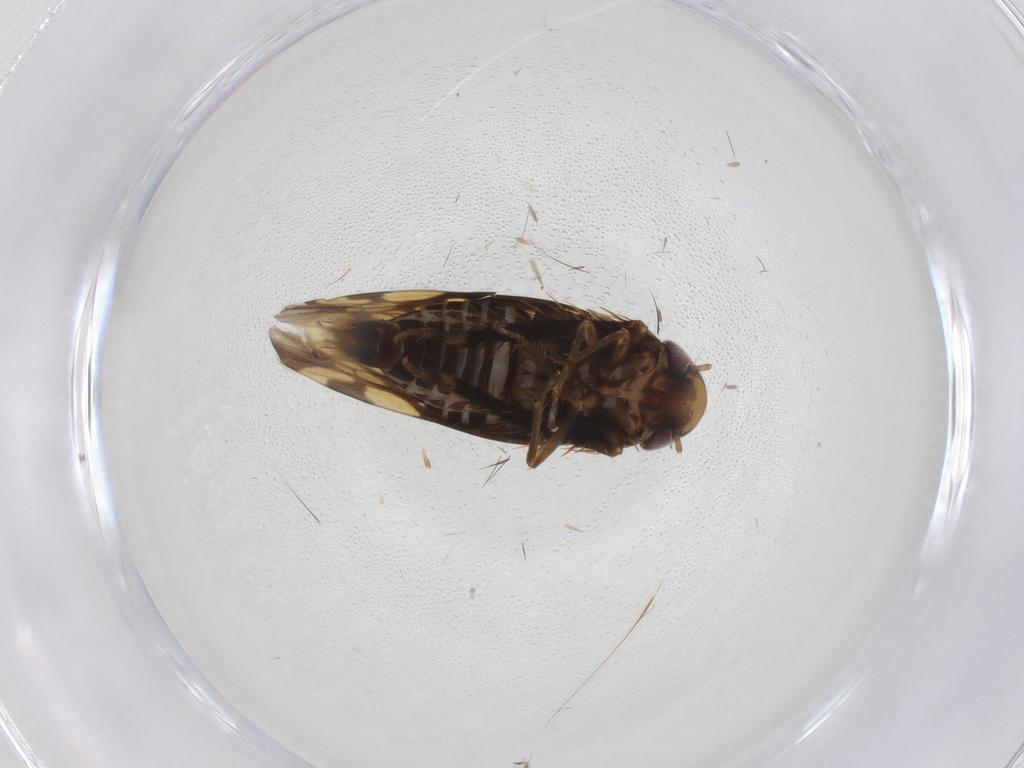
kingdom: Animalia
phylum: Arthropoda
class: Insecta
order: Hemiptera
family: Cicadellidae
